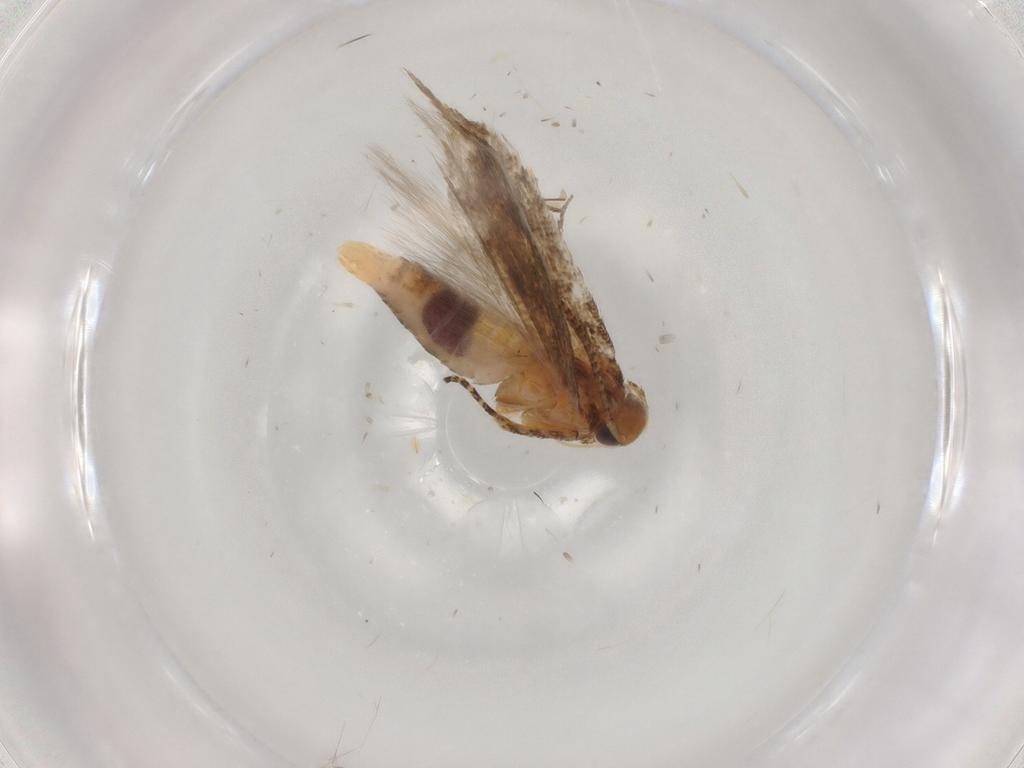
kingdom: Animalia
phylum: Arthropoda
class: Insecta
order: Lepidoptera
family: Gelechiidae
